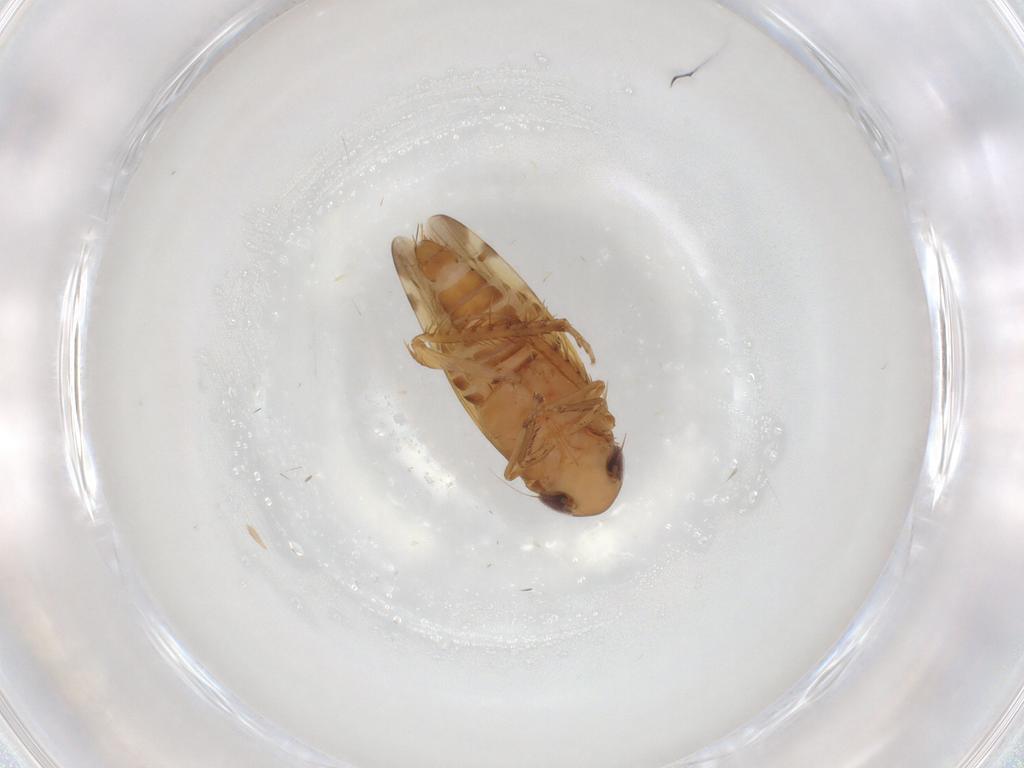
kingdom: Animalia
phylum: Arthropoda
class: Insecta
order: Hemiptera
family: Cicadellidae
